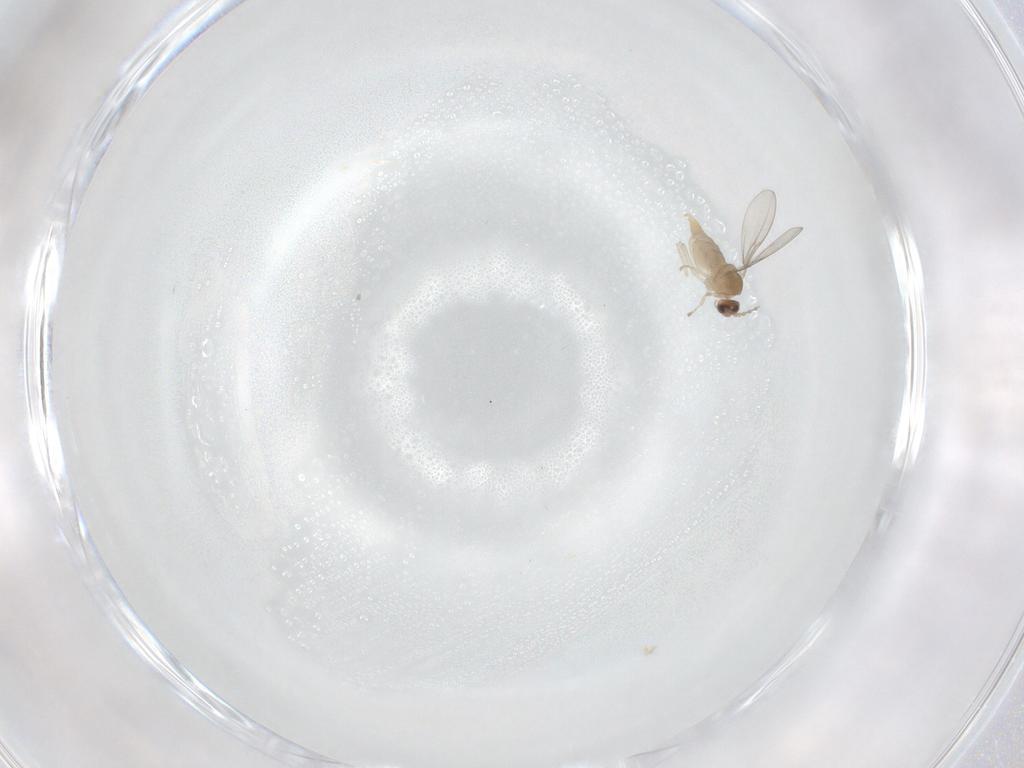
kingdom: Animalia
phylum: Arthropoda
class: Insecta
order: Diptera
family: Cecidomyiidae
